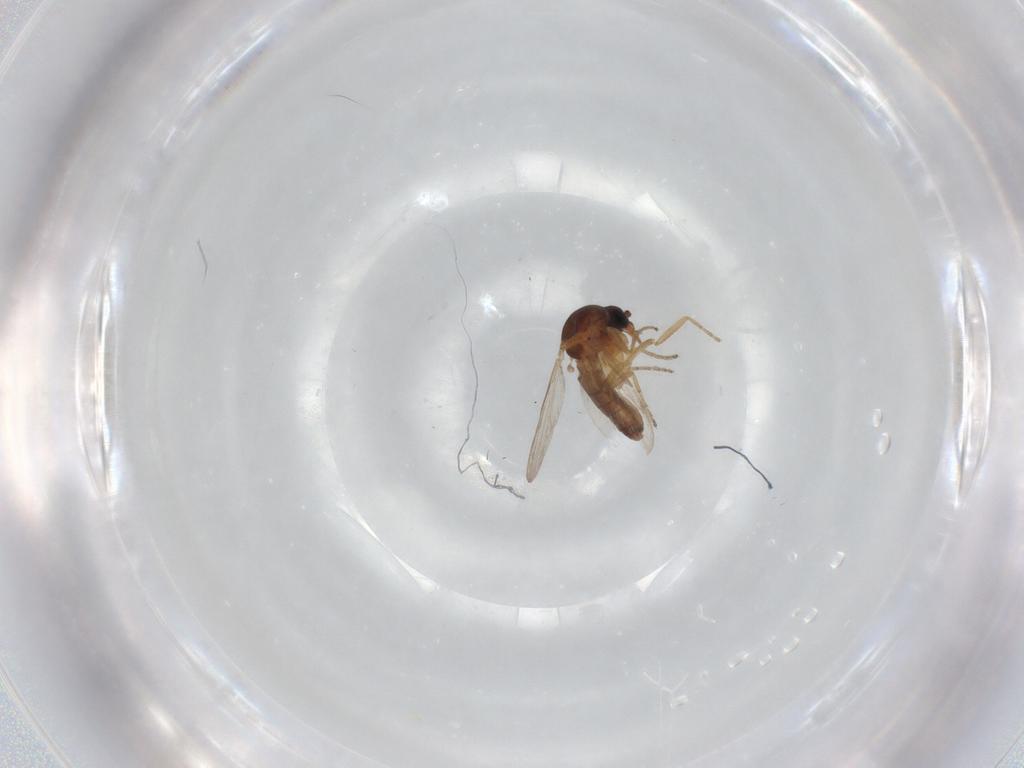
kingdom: Animalia
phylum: Arthropoda
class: Insecta
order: Diptera
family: Ceratopogonidae
